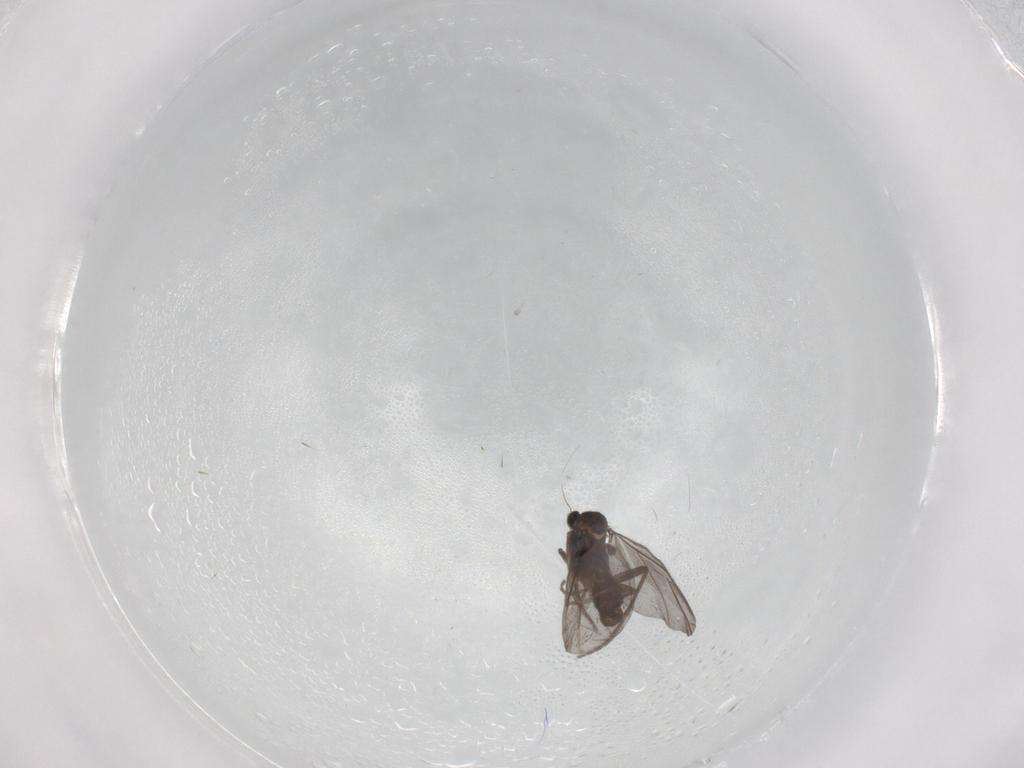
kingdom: Animalia
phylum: Arthropoda
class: Insecta
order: Diptera
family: Phoridae
